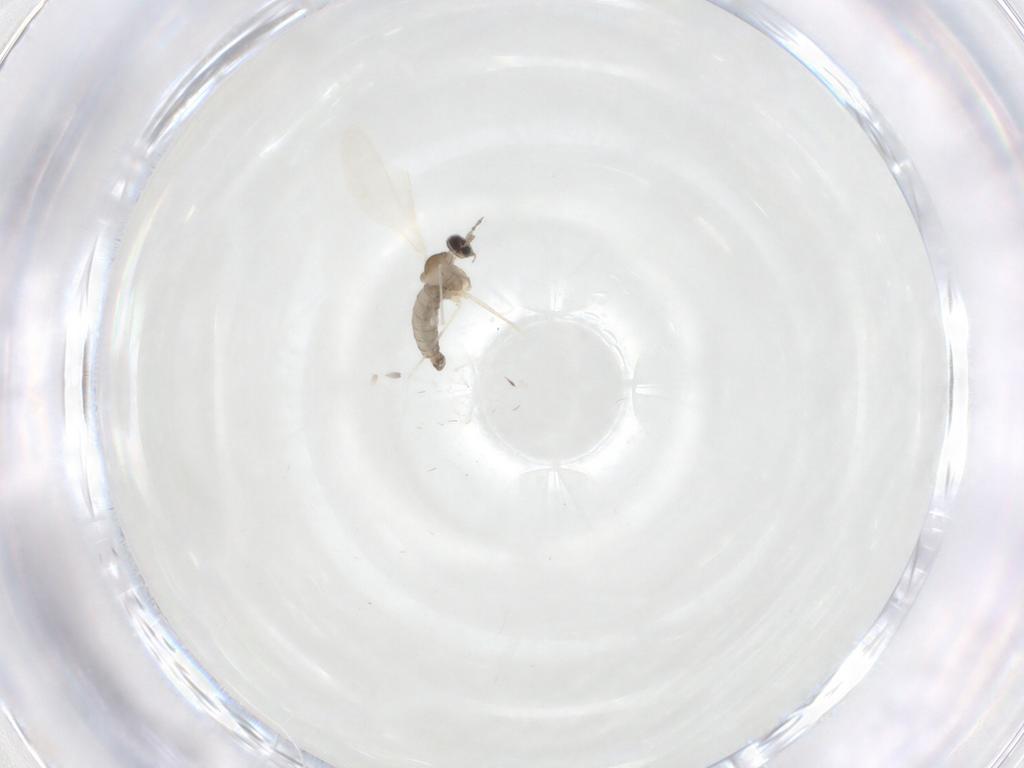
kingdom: Animalia
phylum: Arthropoda
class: Insecta
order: Diptera
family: Cecidomyiidae
